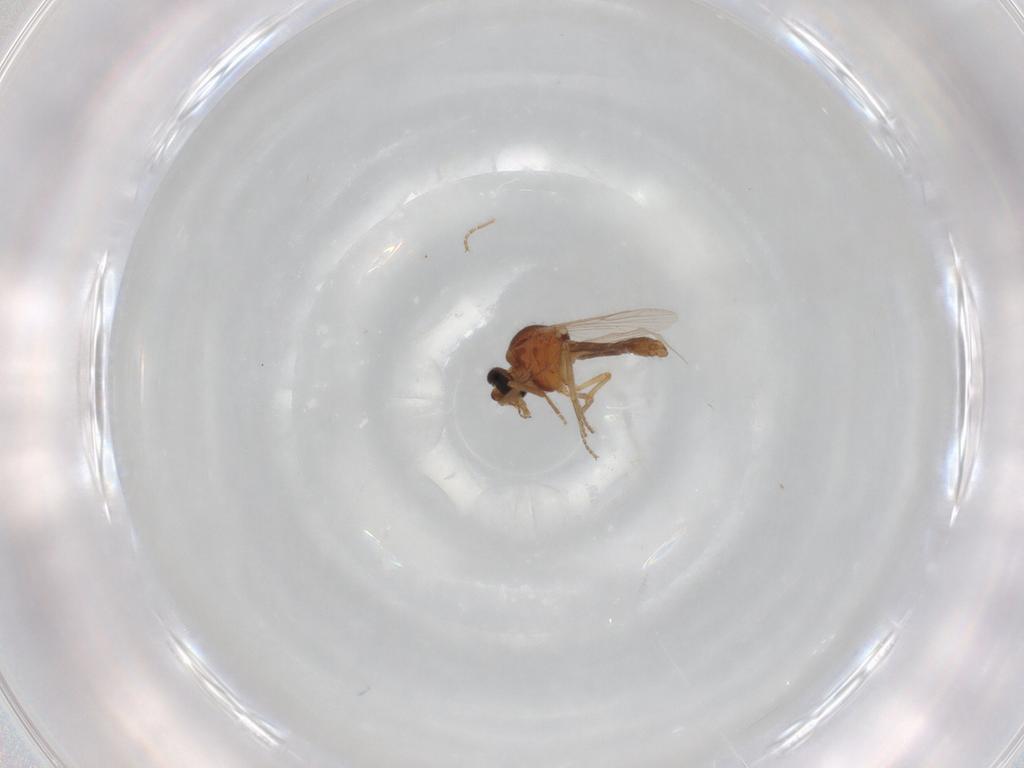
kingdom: Animalia
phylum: Arthropoda
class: Insecta
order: Diptera
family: Ceratopogonidae
